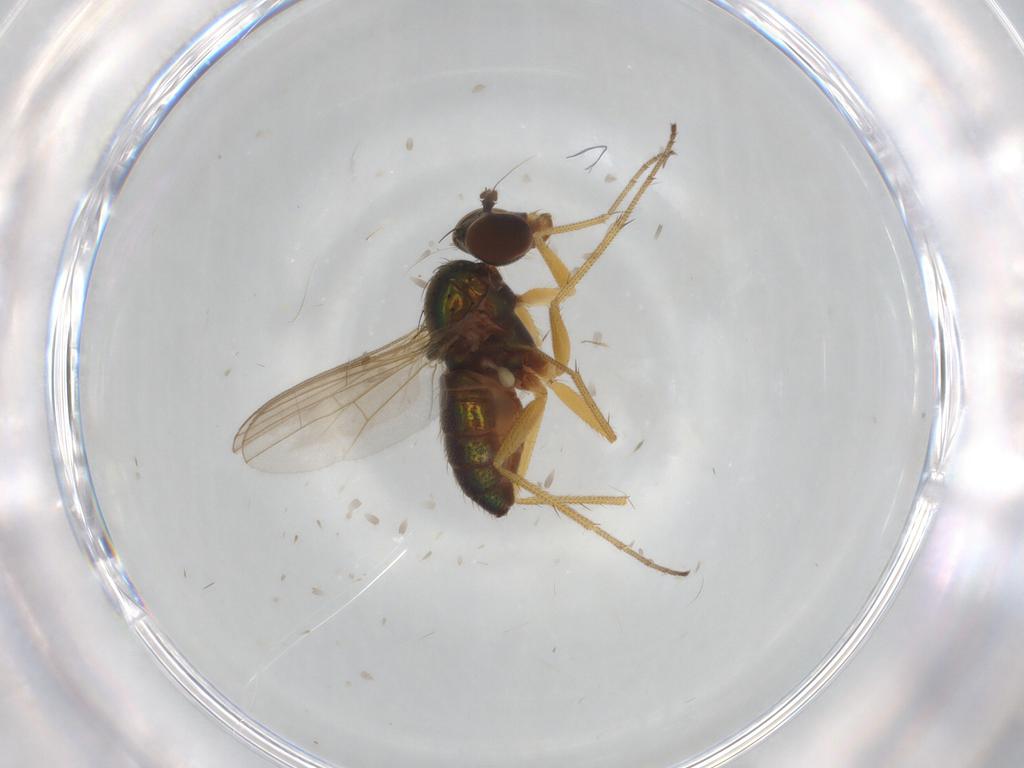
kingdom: Animalia
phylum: Arthropoda
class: Insecta
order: Diptera
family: Dolichopodidae
